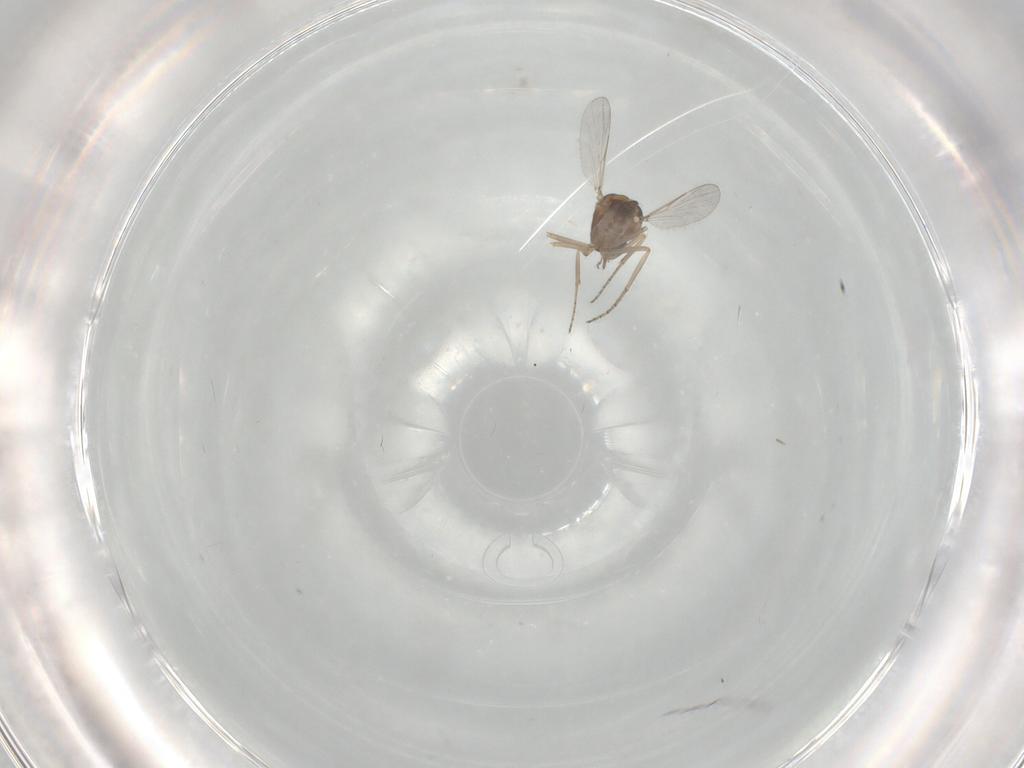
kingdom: Animalia
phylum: Arthropoda
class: Insecta
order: Diptera
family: Ceratopogonidae
